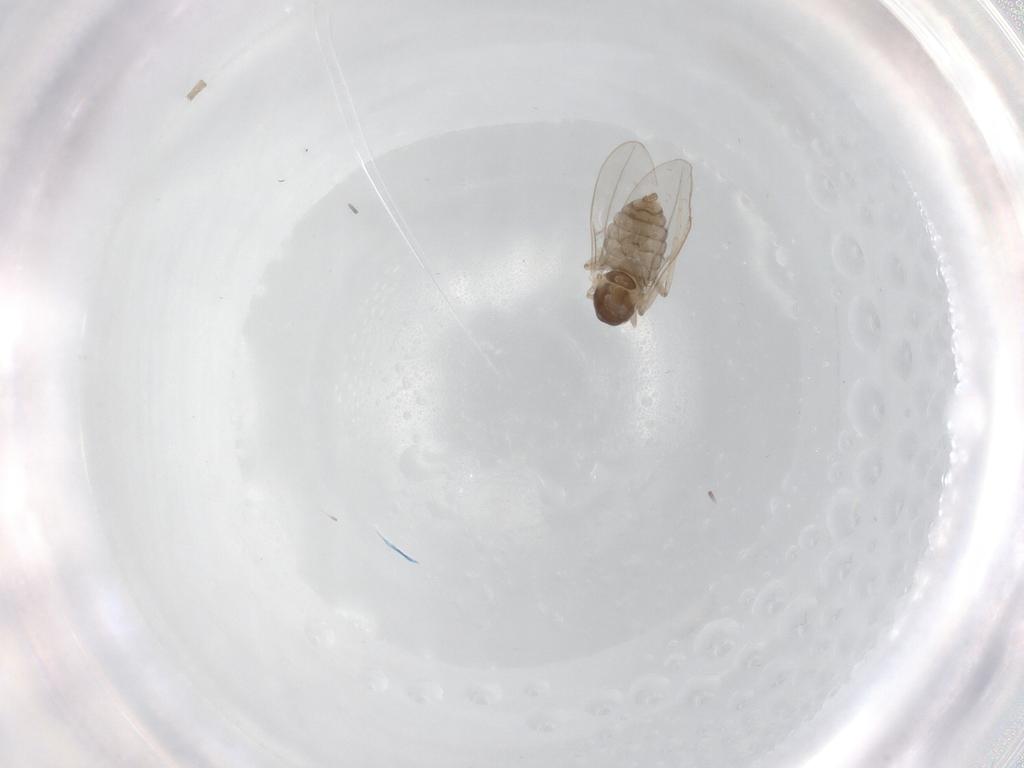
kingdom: Animalia
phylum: Arthropoda
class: Insecta
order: Diptera
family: Cecidomyiidae
